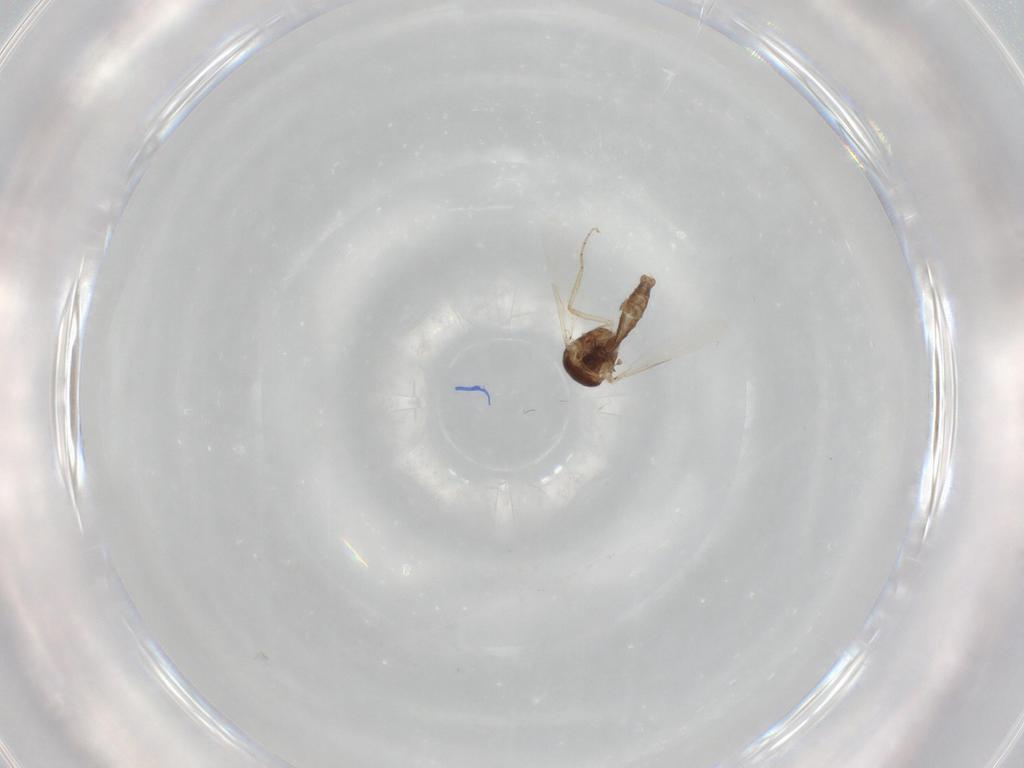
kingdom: Animalia
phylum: Arthropoda
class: Insecta
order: Diptera
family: Ceratopogonidae
